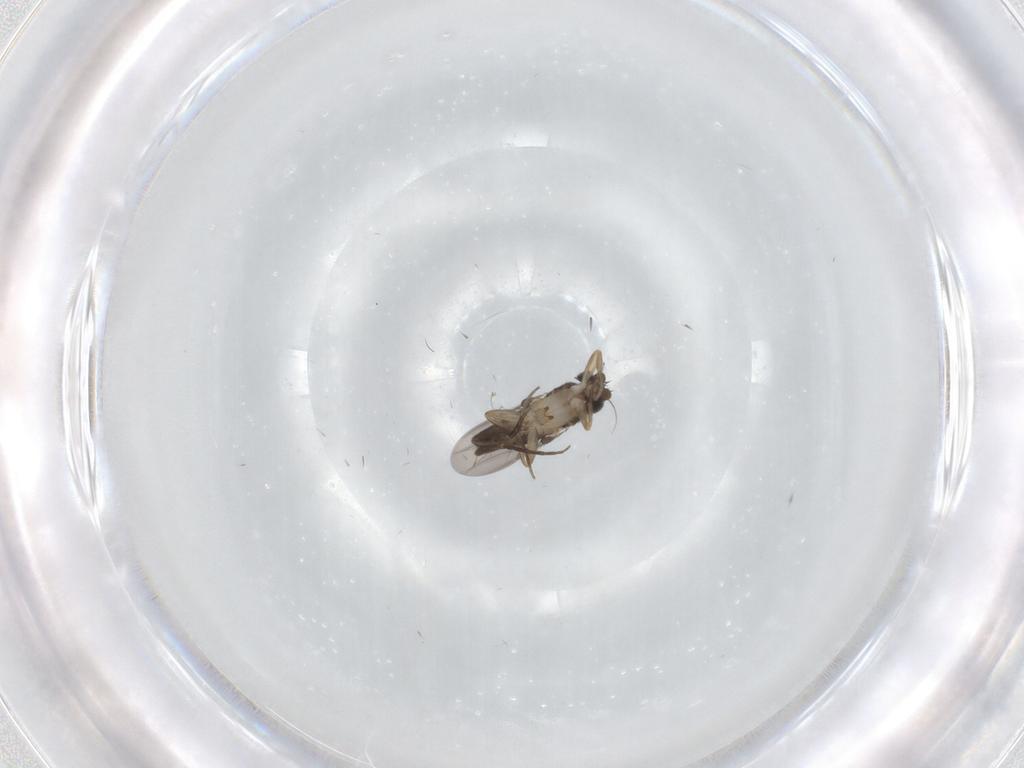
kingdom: Animalia
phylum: Arthropoda
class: Insecta
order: Diptera
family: Phoridae
